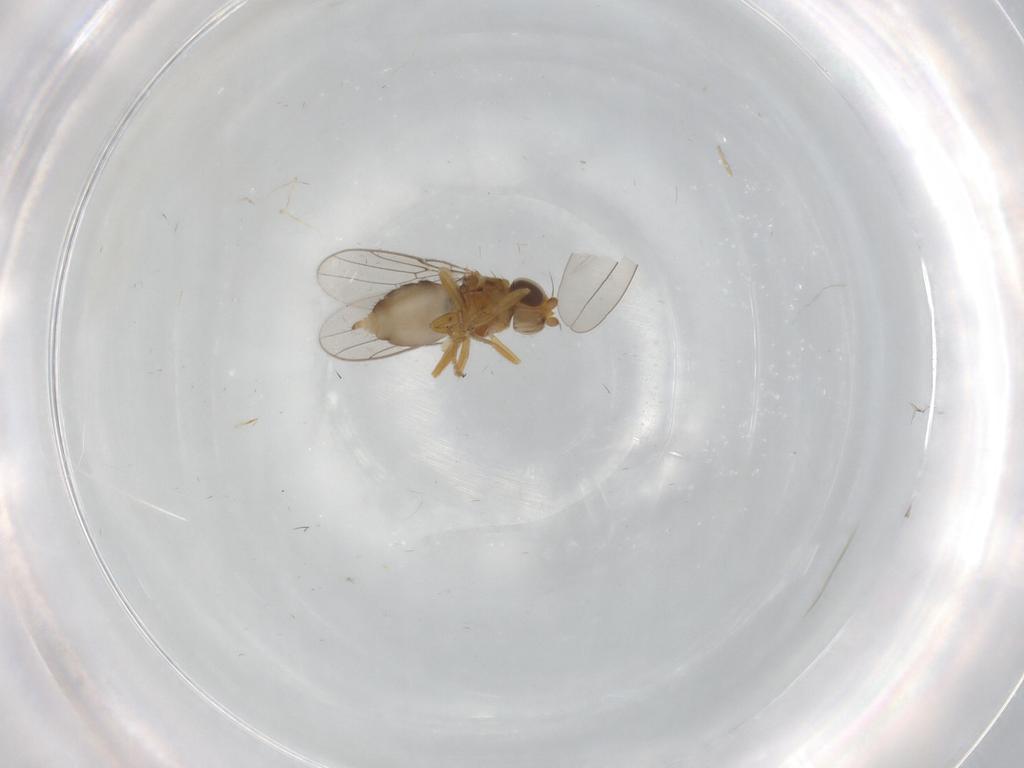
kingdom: Animalia
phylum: Arthropoda
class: Insecta
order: Diptera
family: Chloropidae
